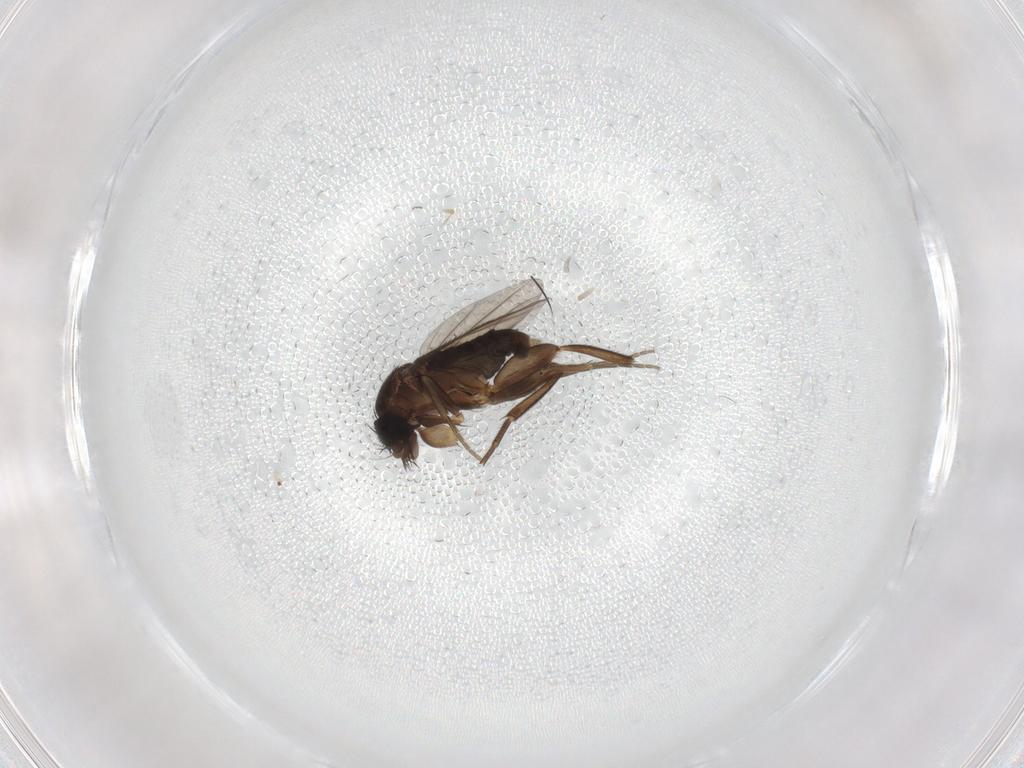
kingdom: Animalia
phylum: Arthropoda
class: Insecta
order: Diptera
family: Phoridae
